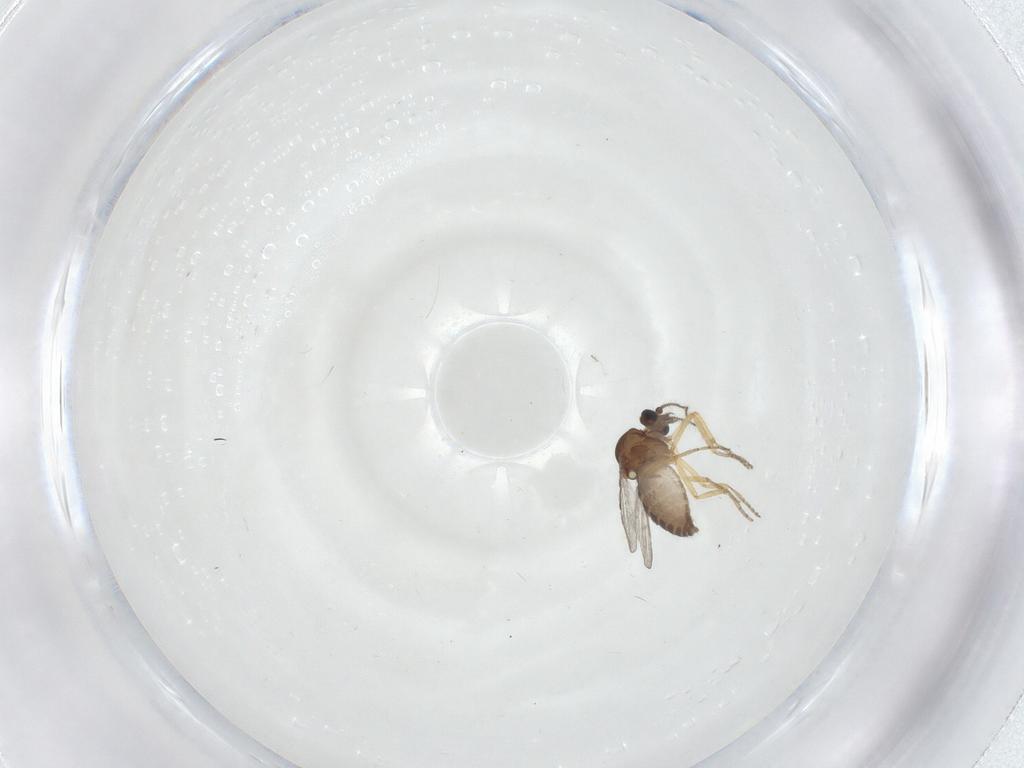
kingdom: Animalia
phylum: Arthropoda
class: Insecta
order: Diptera
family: Ceratopogonidae
